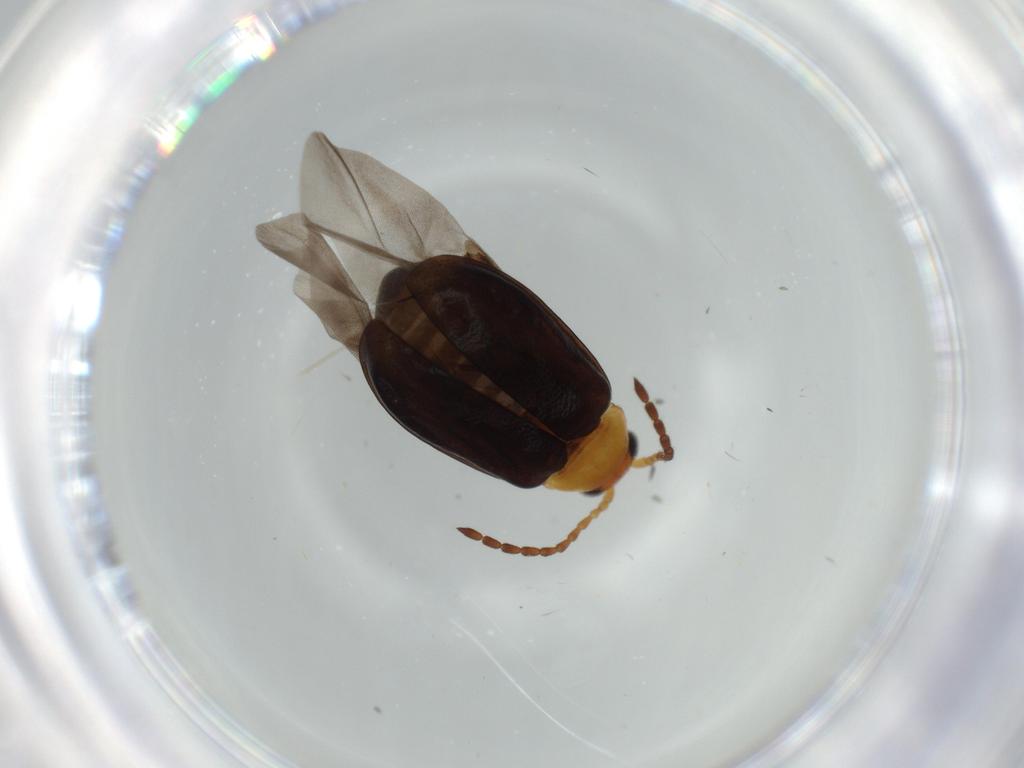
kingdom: Animalia
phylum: Arthropoda
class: Insecta
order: Coleoptera
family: Chrysomelidae
